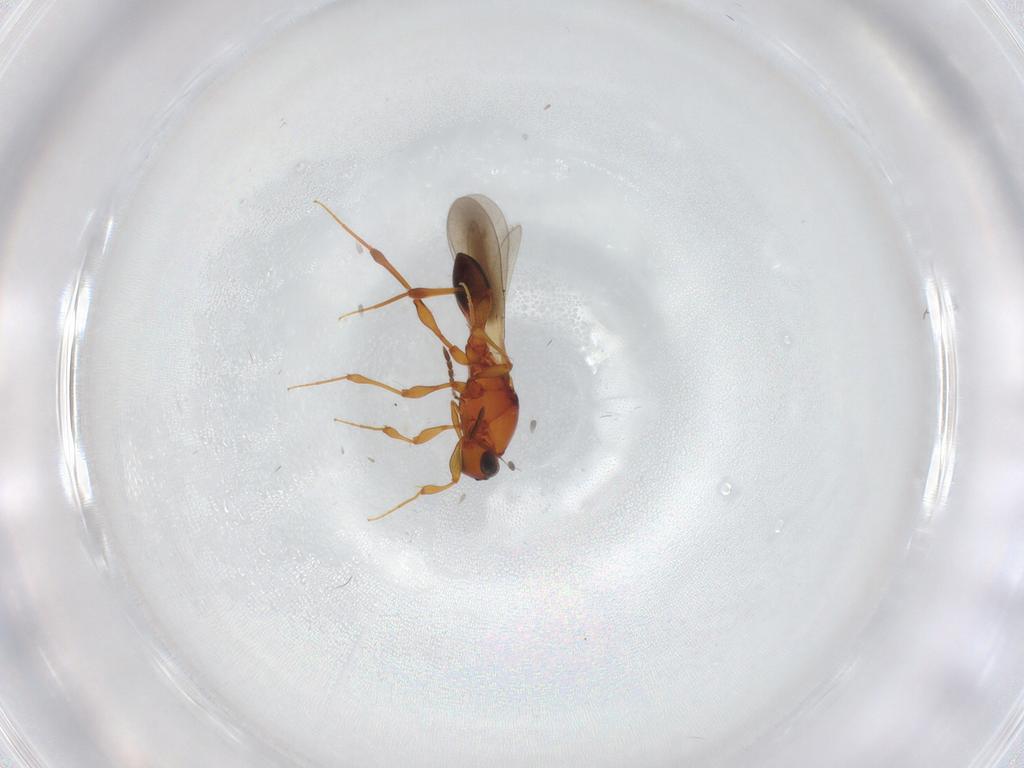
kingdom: Animalia
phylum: Arthropoda
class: Insecta
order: Hymenoptera
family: Platygastridae
